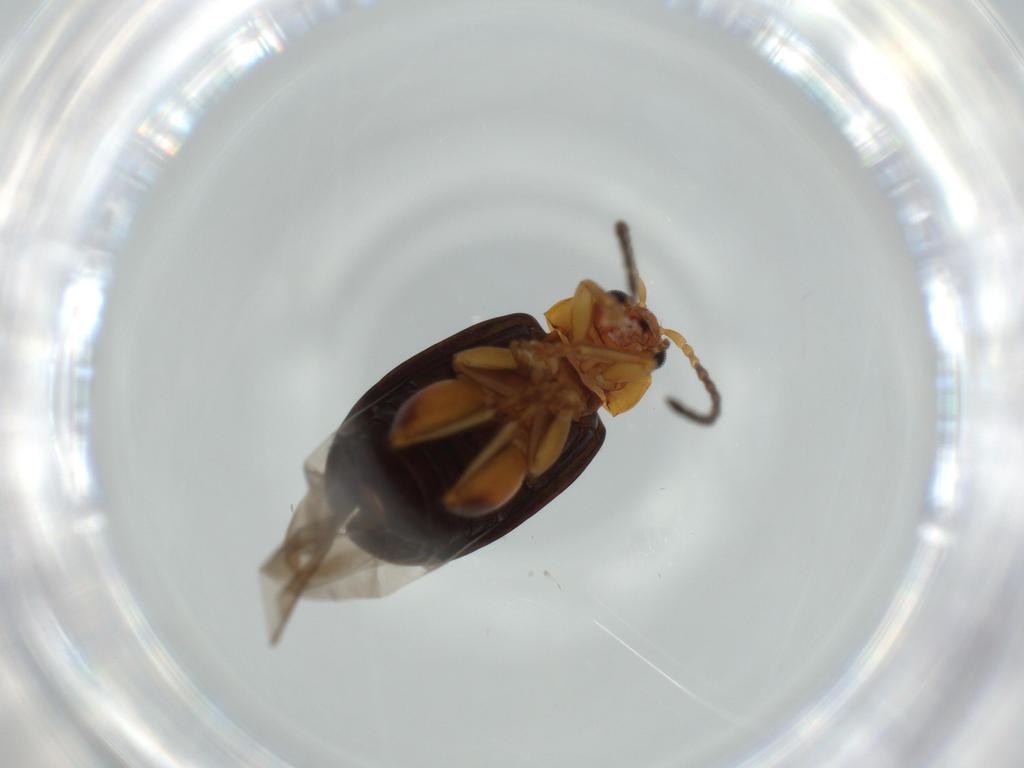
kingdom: Animalia
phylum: Arthropoda
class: Insecta
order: Coleoptera
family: Chrysomelidae
